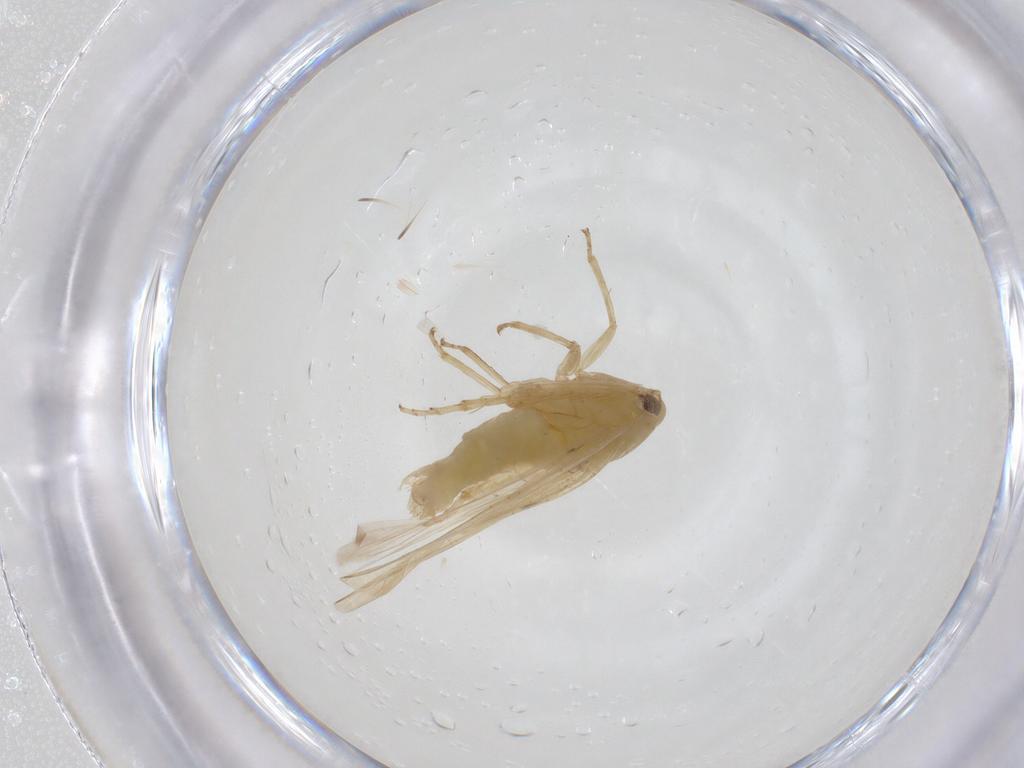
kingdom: Animalia
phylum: Arthropoda
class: Insecta
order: Hemiptera
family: Cicadellidae
